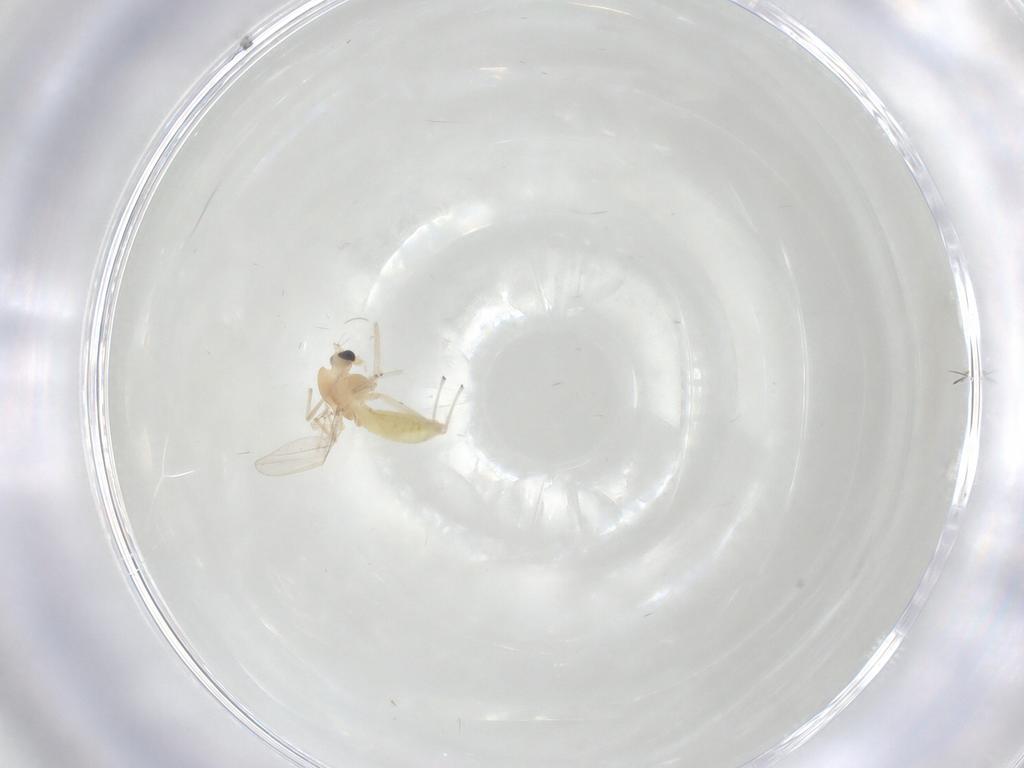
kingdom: Animalia
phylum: Arthropoda
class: Insecta
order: Diptera
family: Chironomidae
